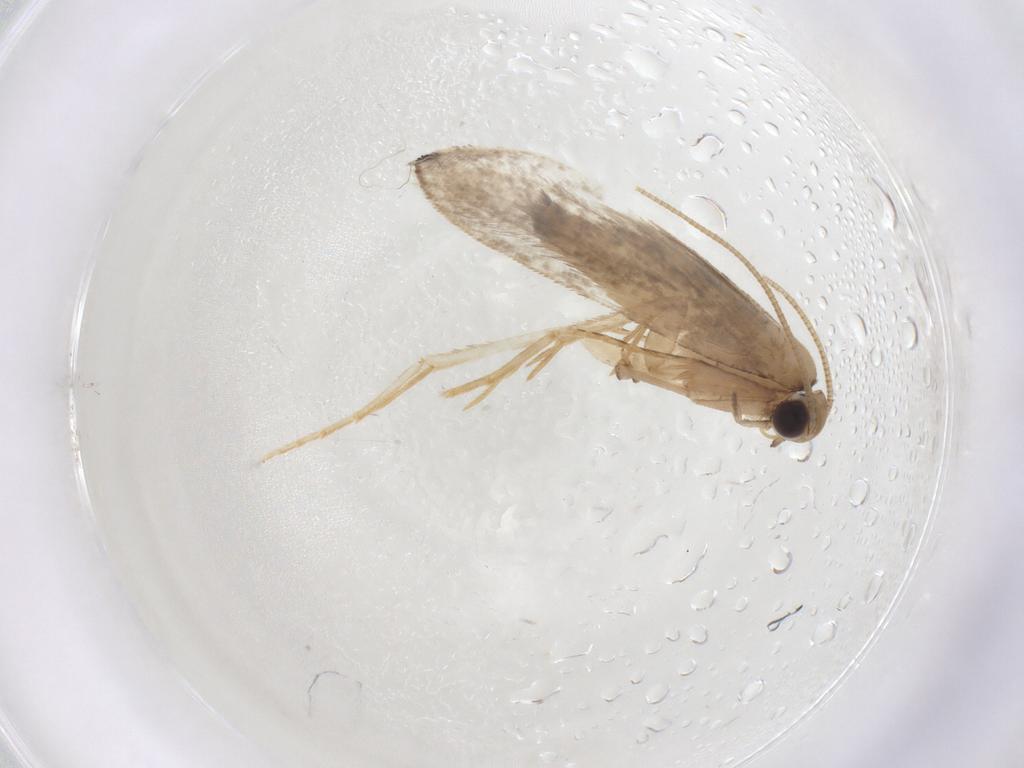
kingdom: Animalia
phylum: Arthropoda
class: Insecta
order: Lepidoptera
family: Tineidae
